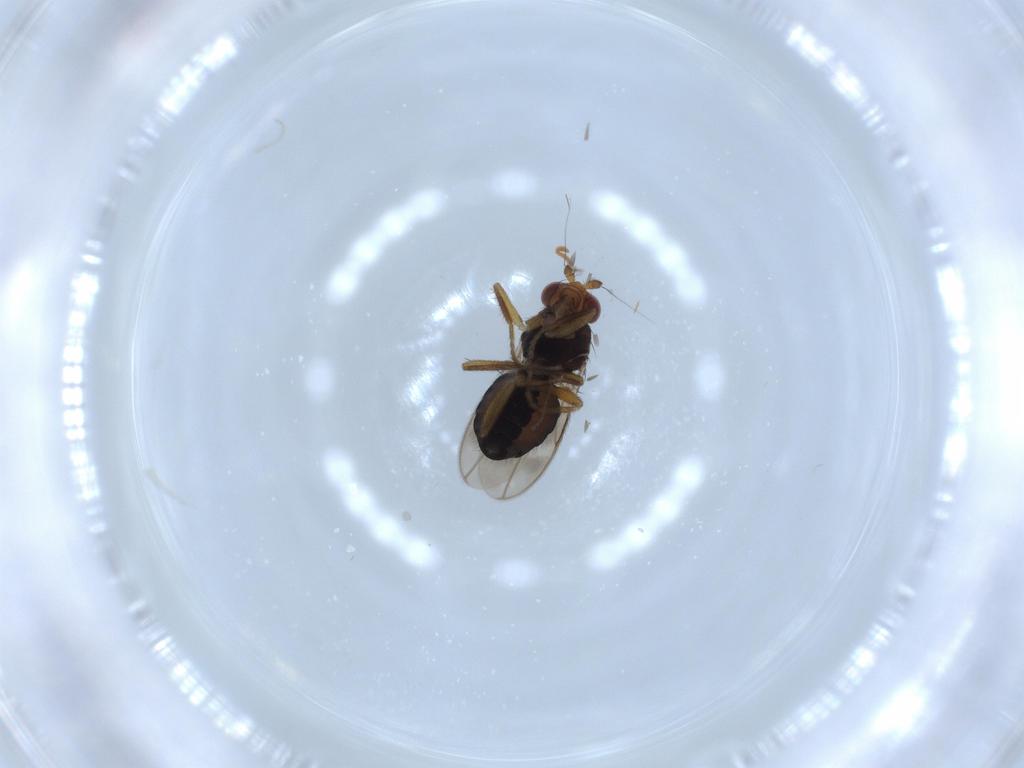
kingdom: Animalia
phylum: Arthropoda
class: Insecta
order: Diptera
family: Sphaeroceridae
